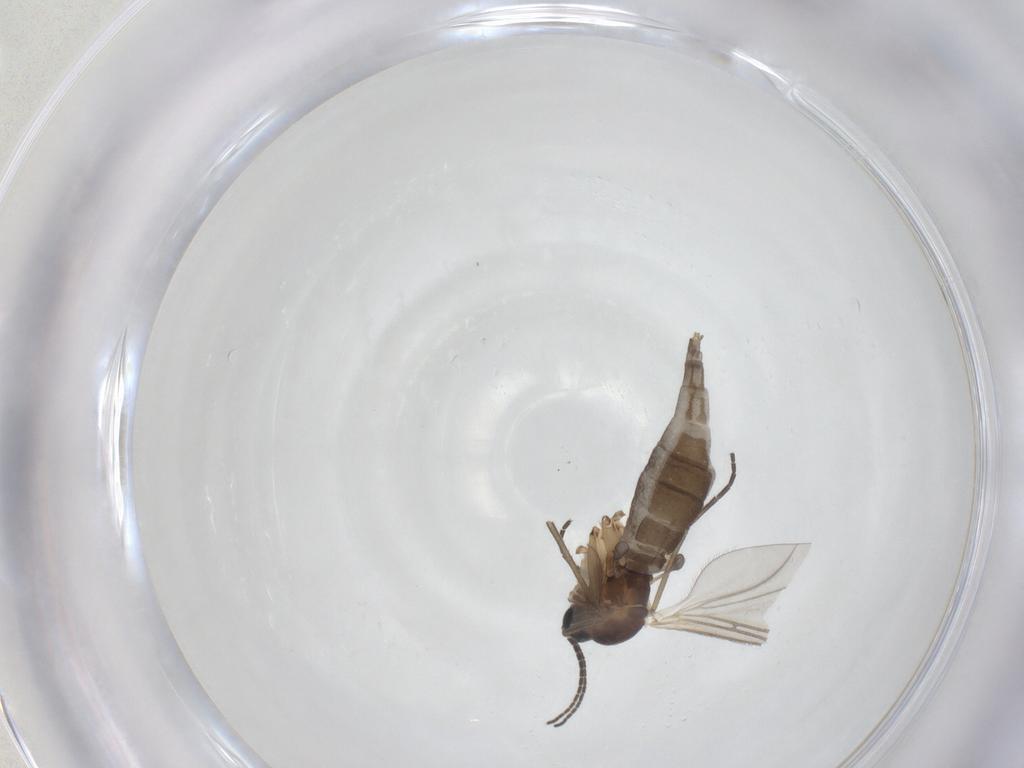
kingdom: Animalia
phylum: Arthropoda
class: Insecta
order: Diptera
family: Sciaridae
